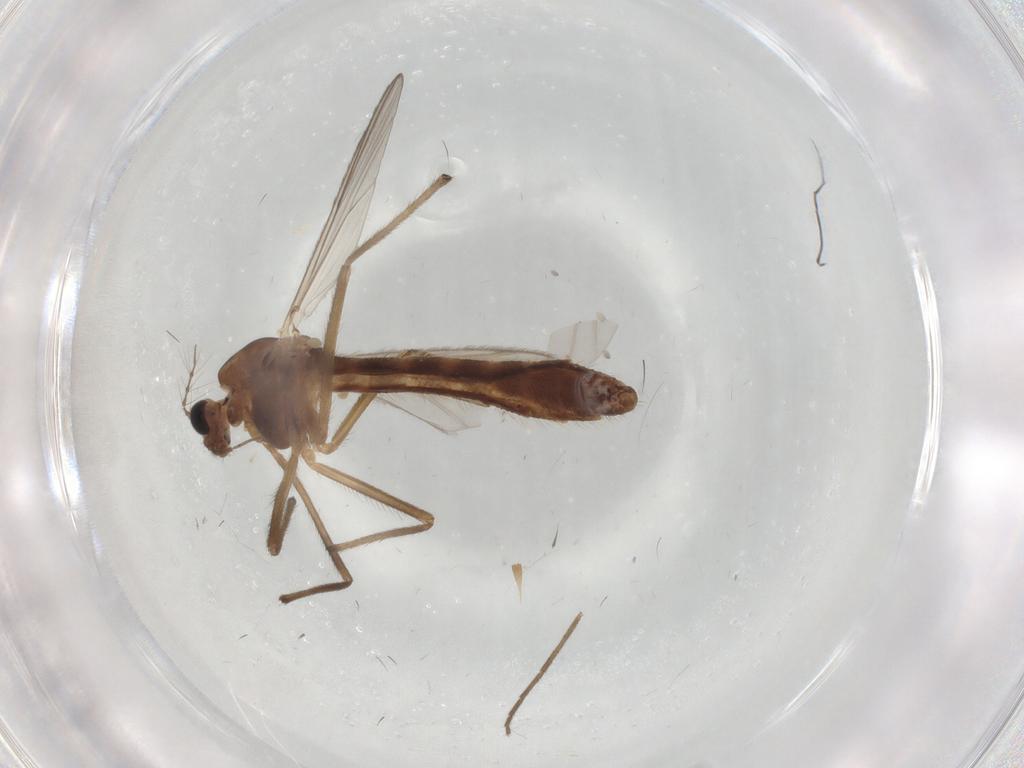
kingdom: Animalia
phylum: Arthropoda
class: Insecta
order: Diptera
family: Chironomidae
